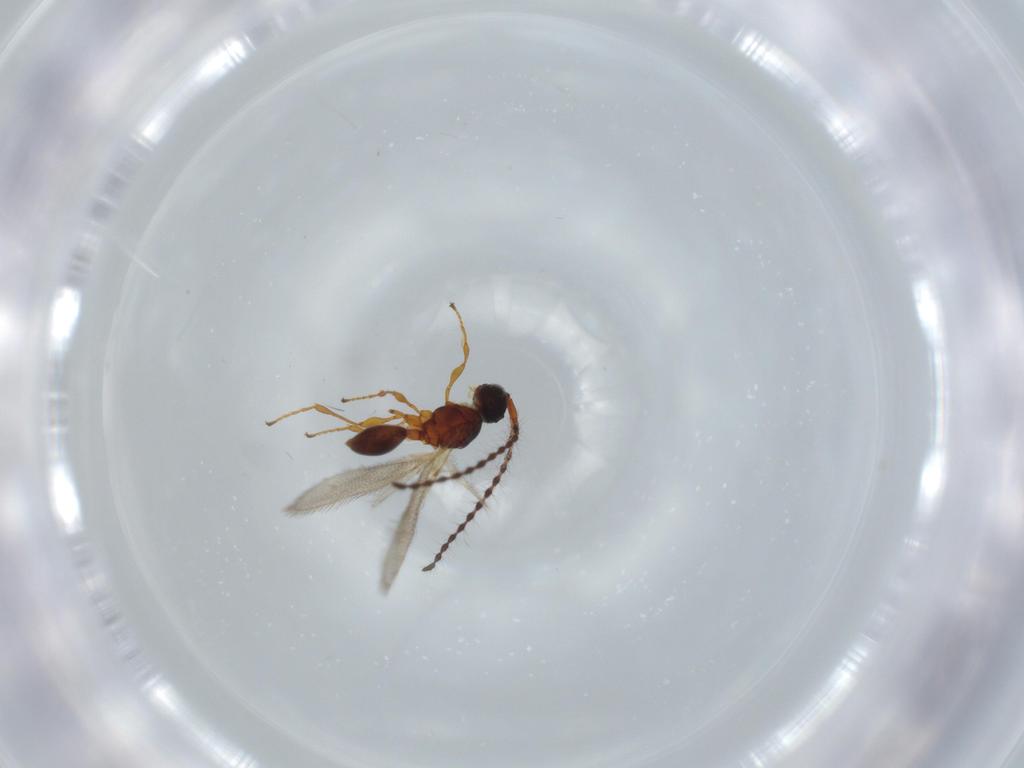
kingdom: Animalia
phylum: Arthropoda
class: Insecta
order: Hymenoptera
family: Diapriidae
